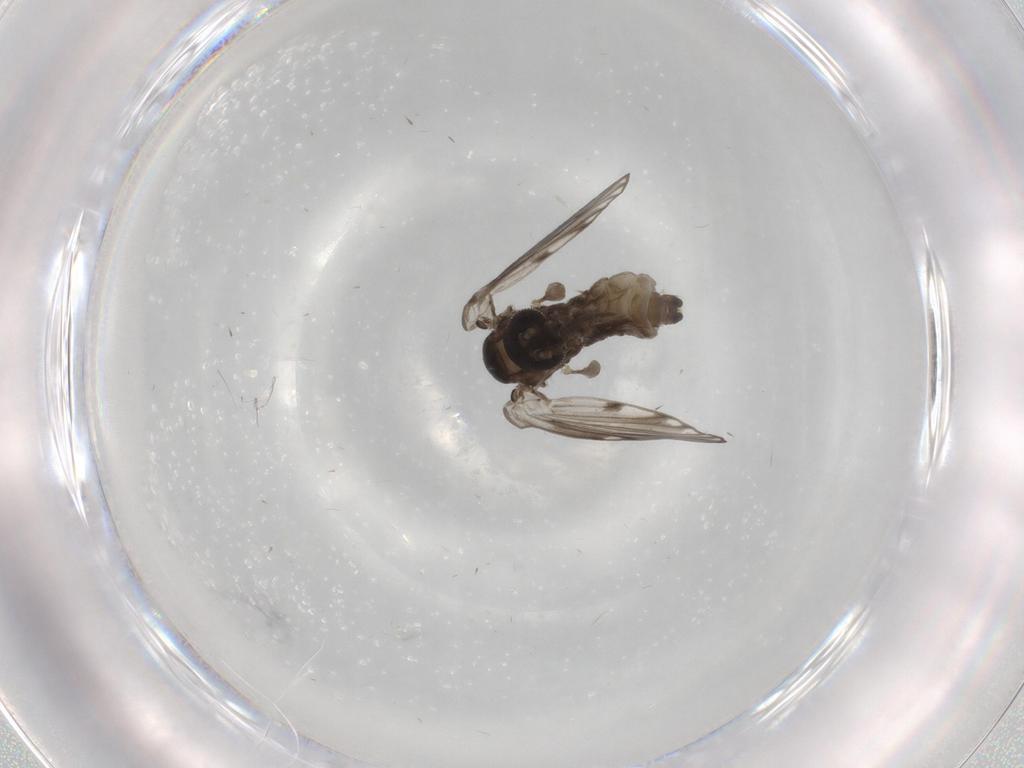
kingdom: Animalia
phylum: Arthropoda
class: Insecta
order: Diptera
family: Psychodidae
